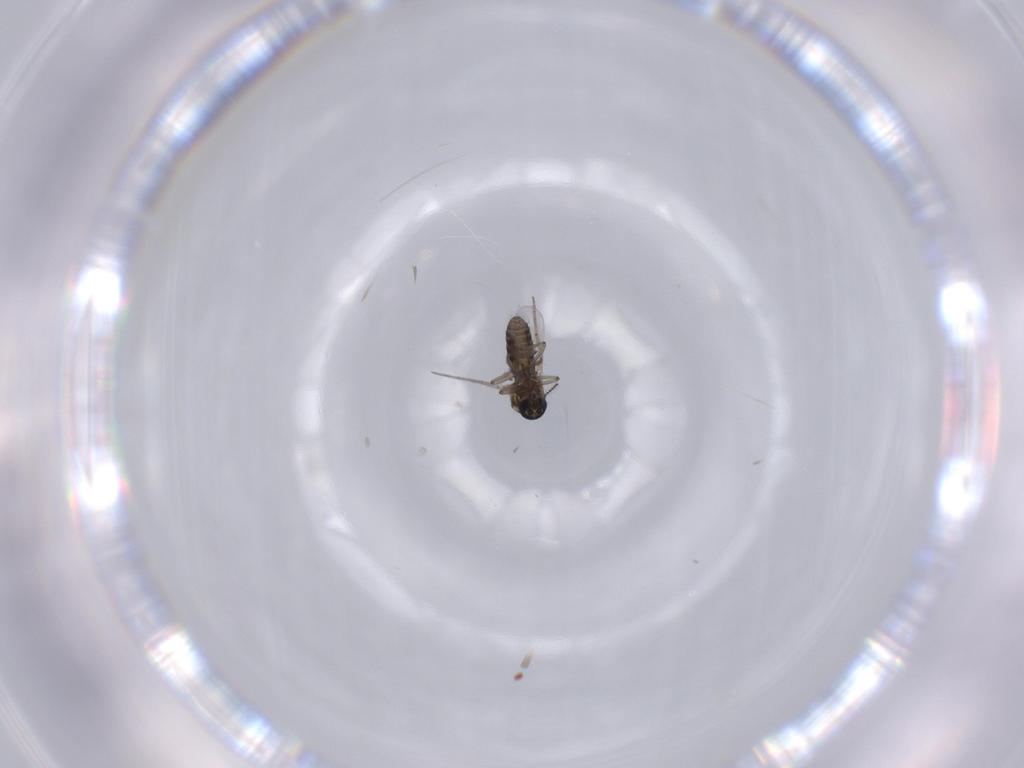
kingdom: Animalia
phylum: Arthropoda
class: Insecta
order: Diptera
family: Ceratopogonidae
